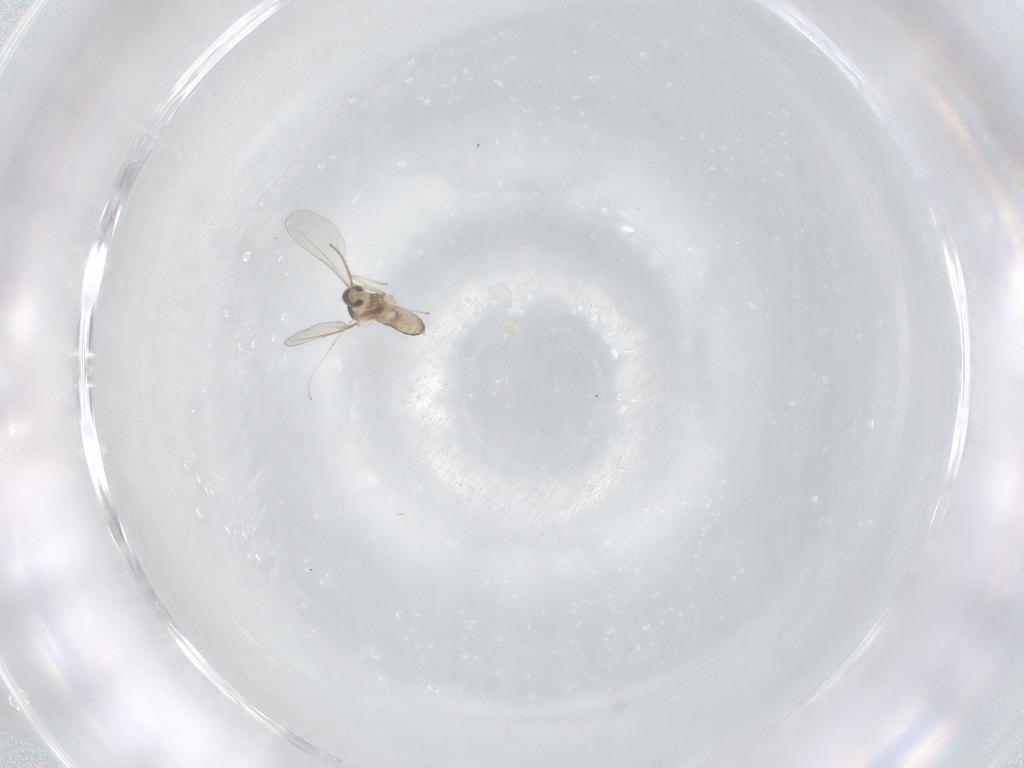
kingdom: Animalia
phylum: Arthropoda
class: Insecta
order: Diptera
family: Cecidomyiidae
